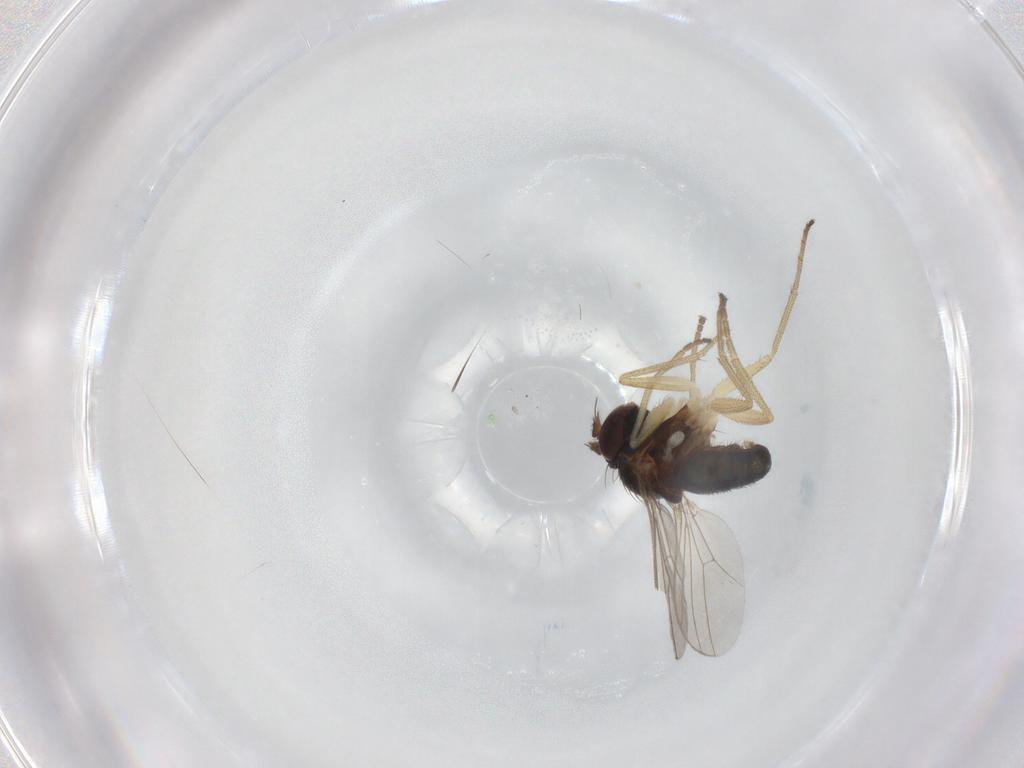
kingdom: Animalia
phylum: Arthropoda
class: Insecta
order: Diptera
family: Dolichopodidae
